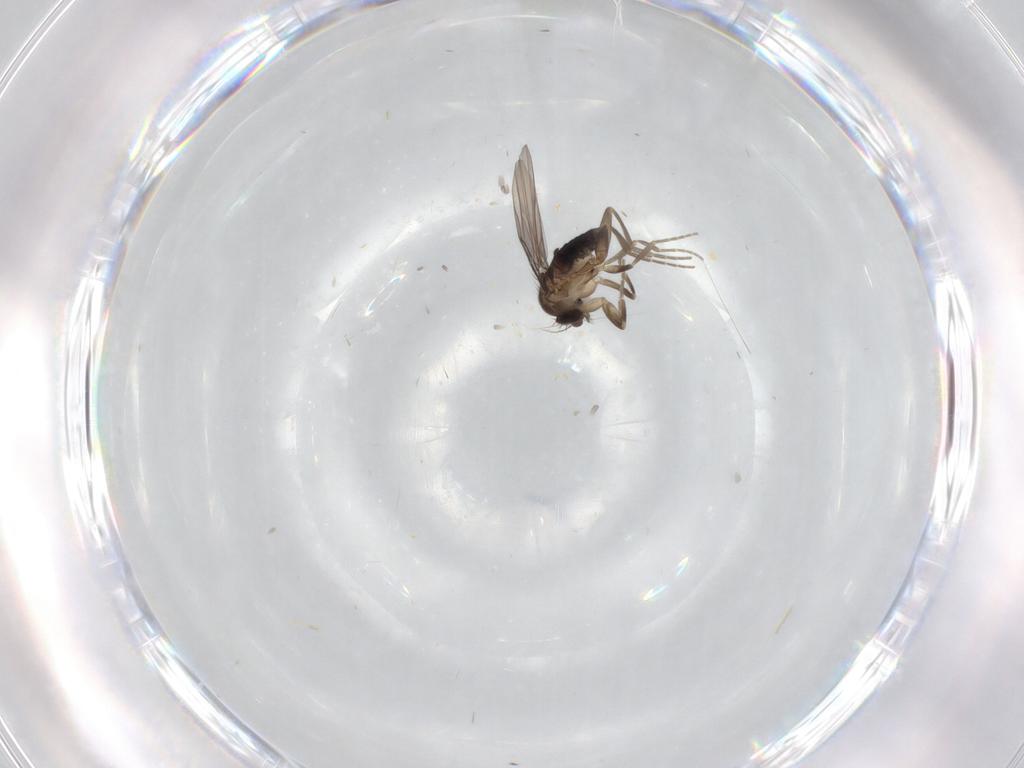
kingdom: Animalia
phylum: Arthropoda
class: Insecta
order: Diptera
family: Phoridae
